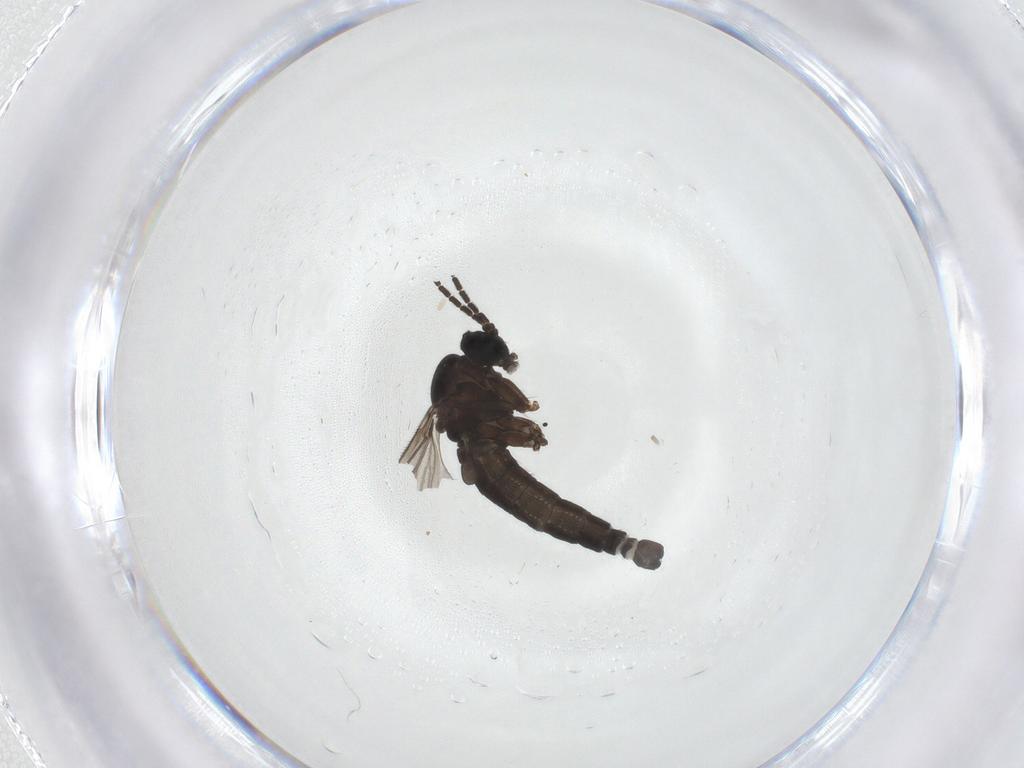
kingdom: Animalia
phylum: Arthropoda
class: Insecta
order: Diptera
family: Sciaridae
